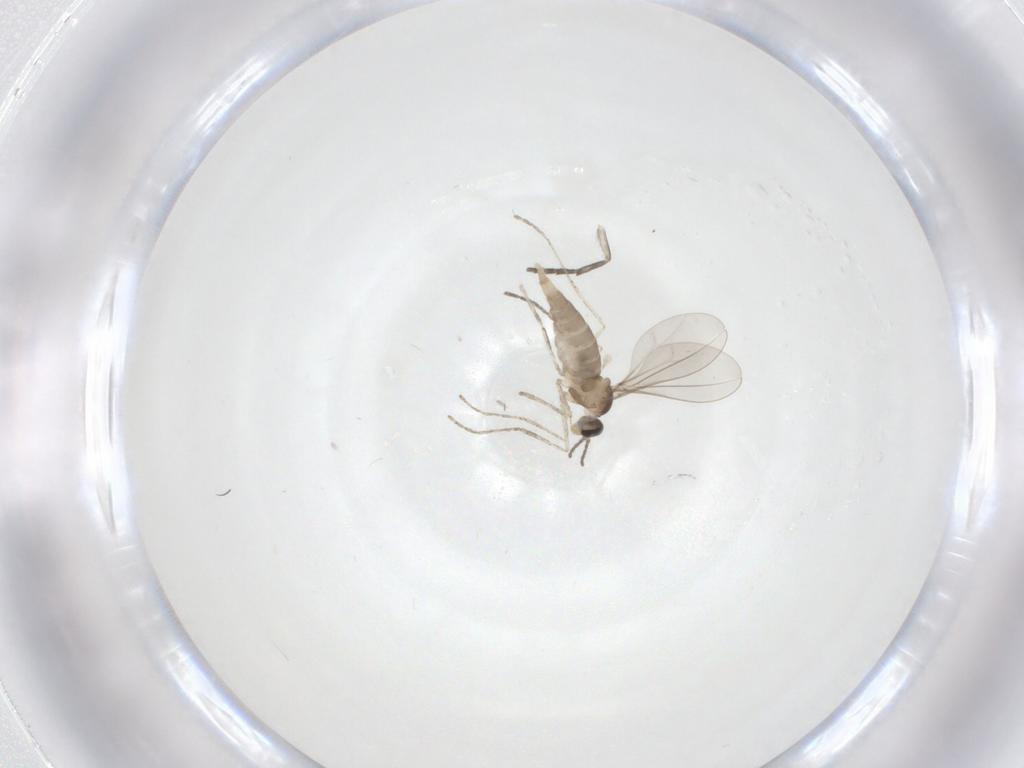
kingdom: Animalia
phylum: Arthropoda
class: Insecta
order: Diptera
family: Cecidomyiidae
